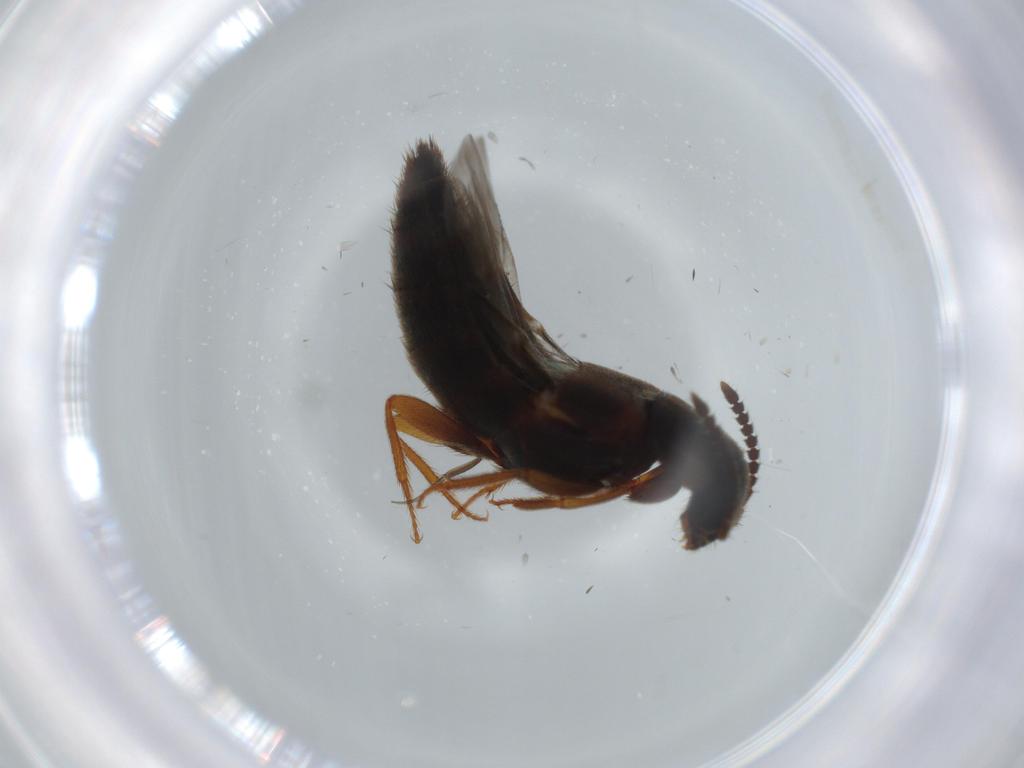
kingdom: Animalia
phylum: Arthropoda
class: Insecta
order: Coleoptera
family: Staphylinidae
